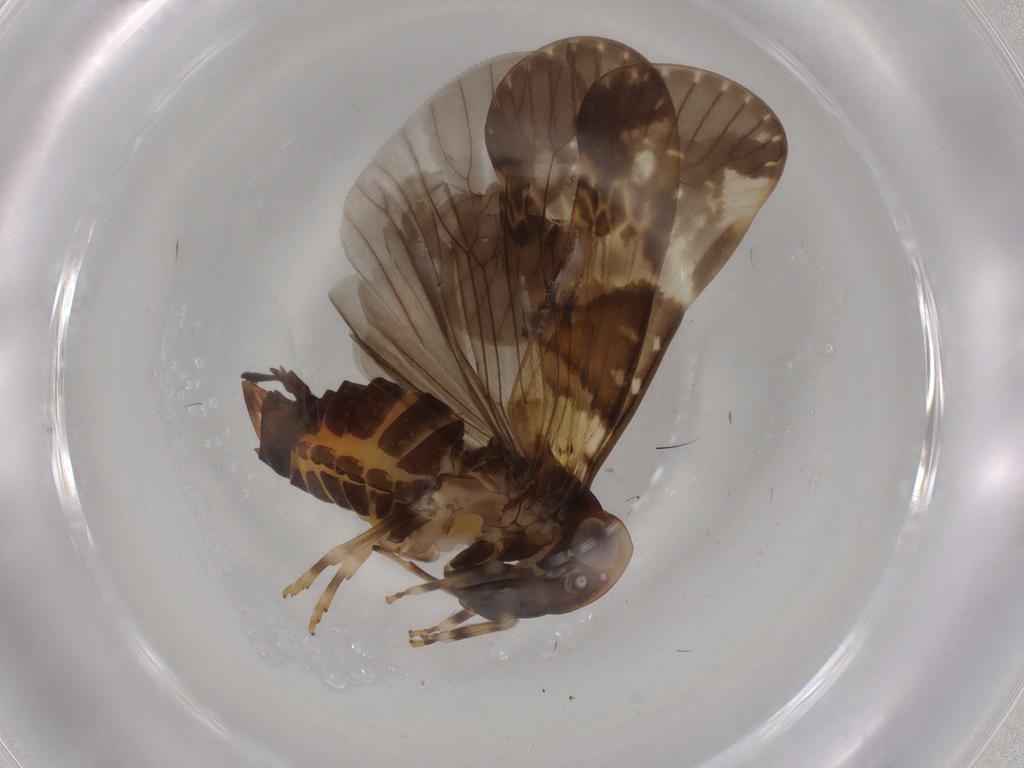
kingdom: Animalia
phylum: Arthropoda
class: Insecta
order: Hemiptera
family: Cixiidae
